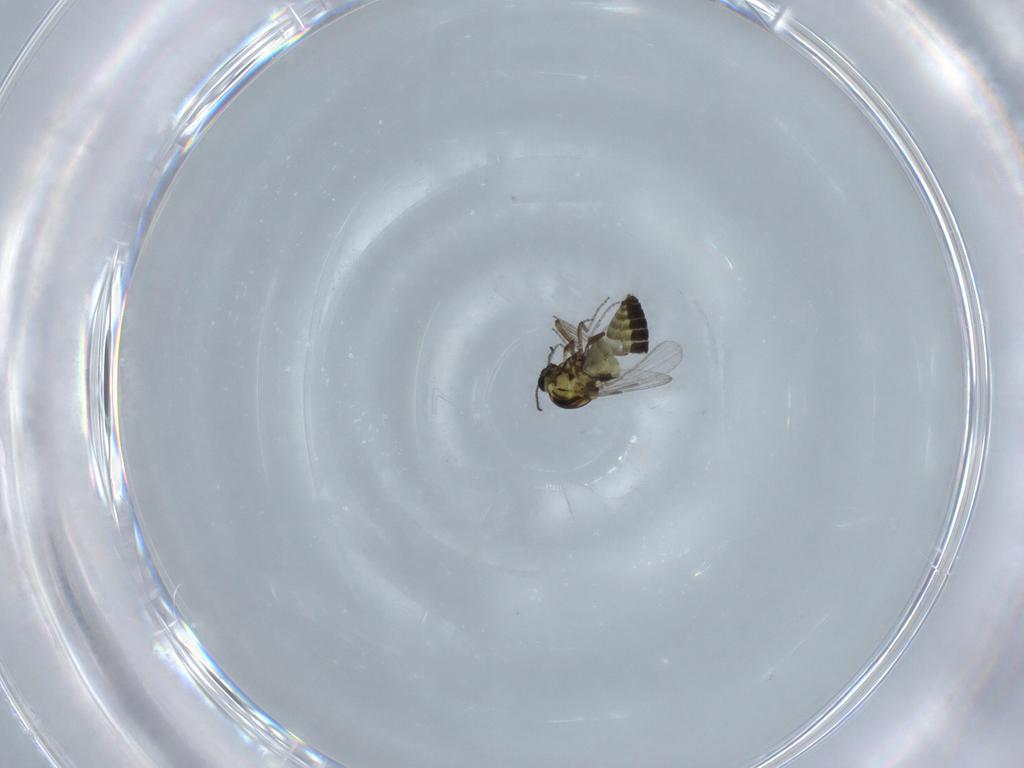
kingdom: Animalia
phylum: Arthropoda
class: Insecta
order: Diptera
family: Ceratopogonidae
